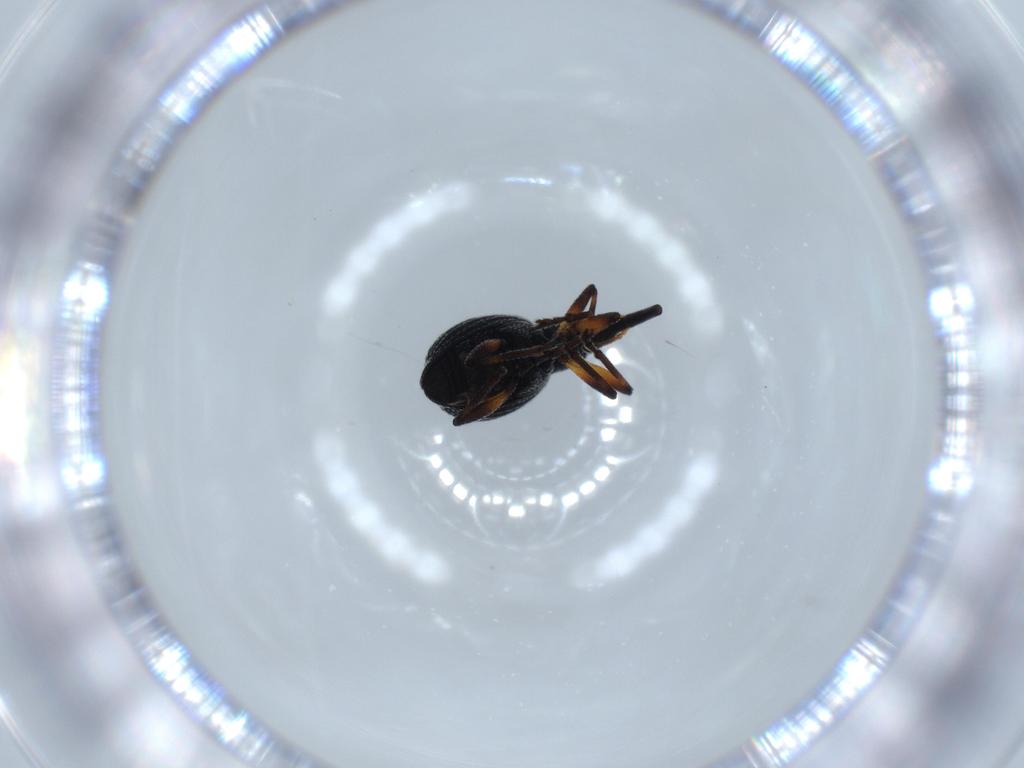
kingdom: Animalia
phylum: Arthropoda
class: Insecta
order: Coleoptera
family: Brentidae
